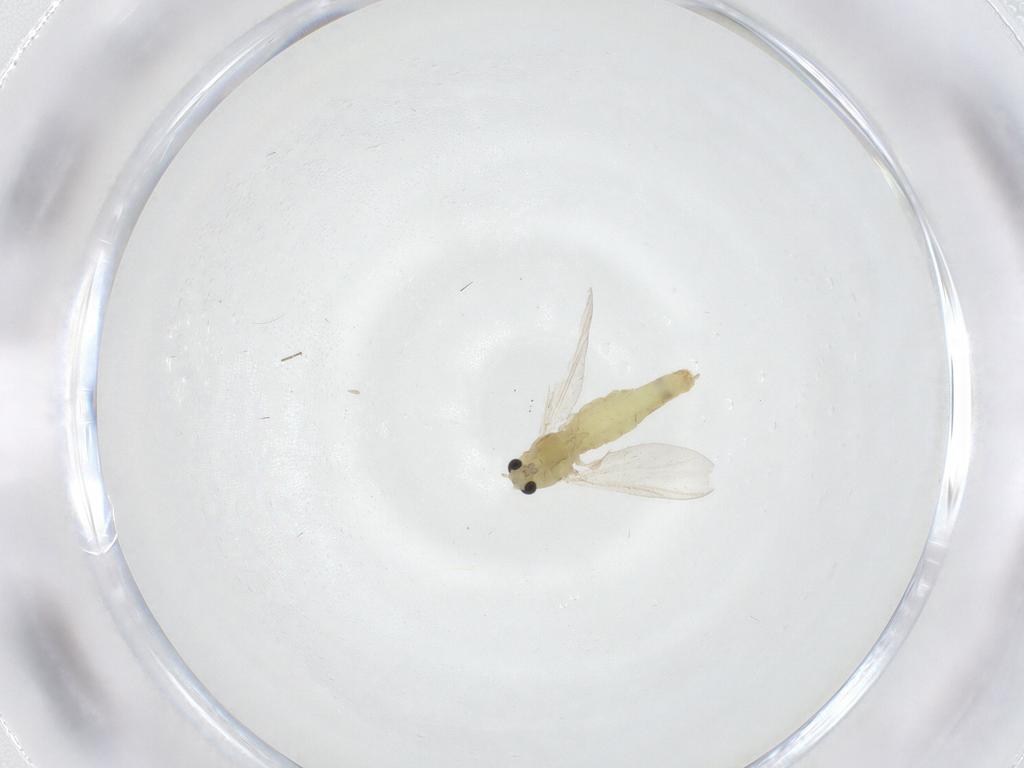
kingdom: Animalia
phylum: Arthropoda
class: Insecta
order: Diptera
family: Chironomidae
